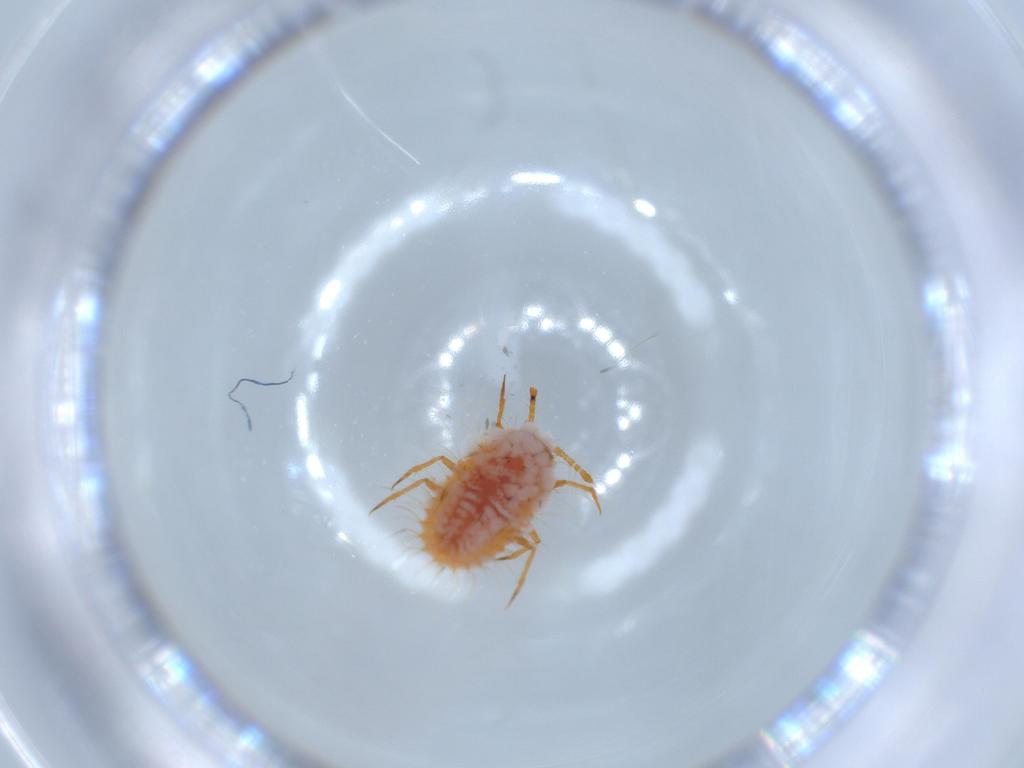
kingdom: Animalia
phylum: Arthropoda
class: Insecta
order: Hemiptera
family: Coccoidea_incertae_sedis
